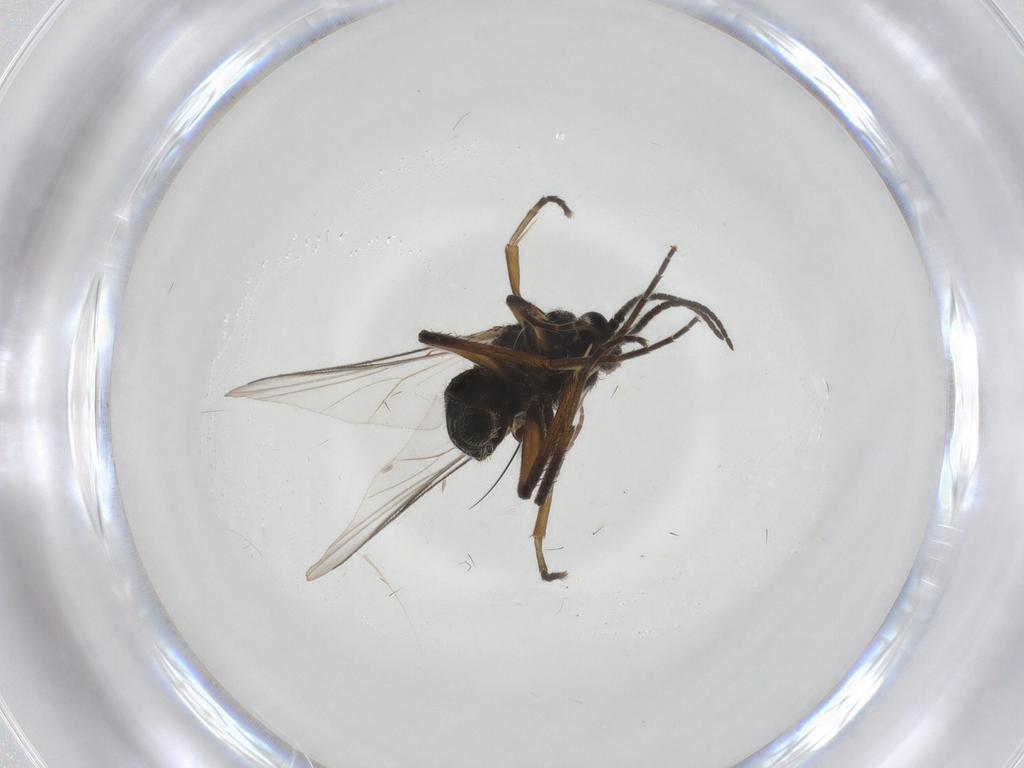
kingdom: Animalia
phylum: Arthropoda
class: Insecta
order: Diptera
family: Mycetophilidae
